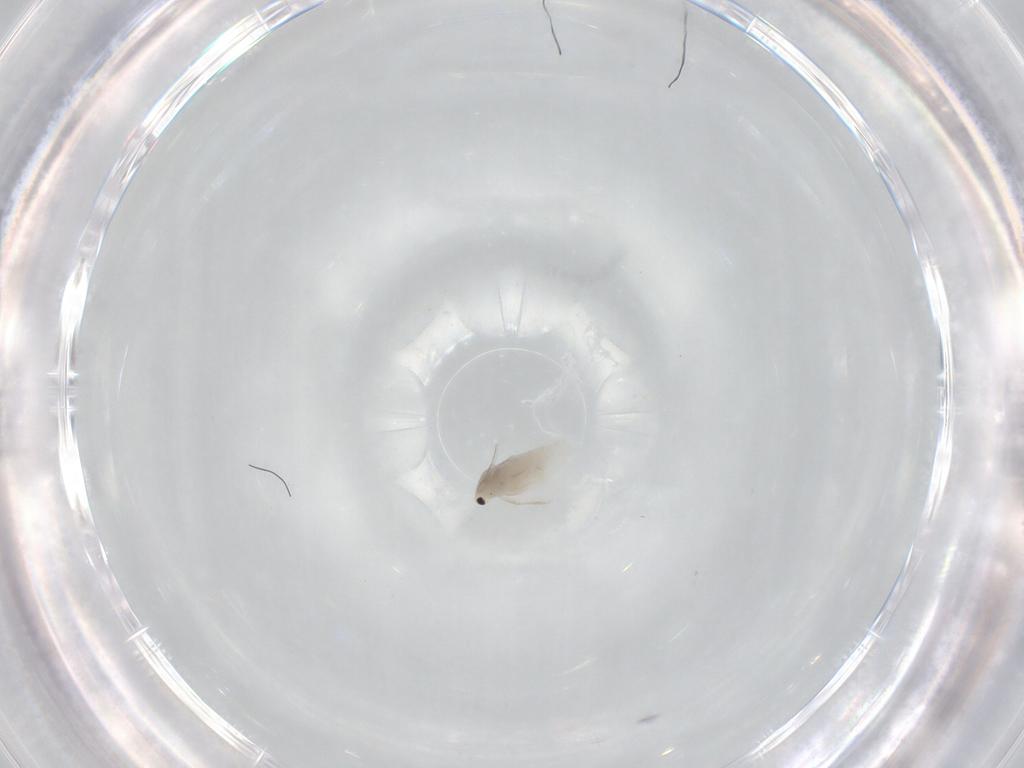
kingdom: Animalia
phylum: Arthropoda
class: Branchiopoda
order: Diplostraca
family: Daphniidae
